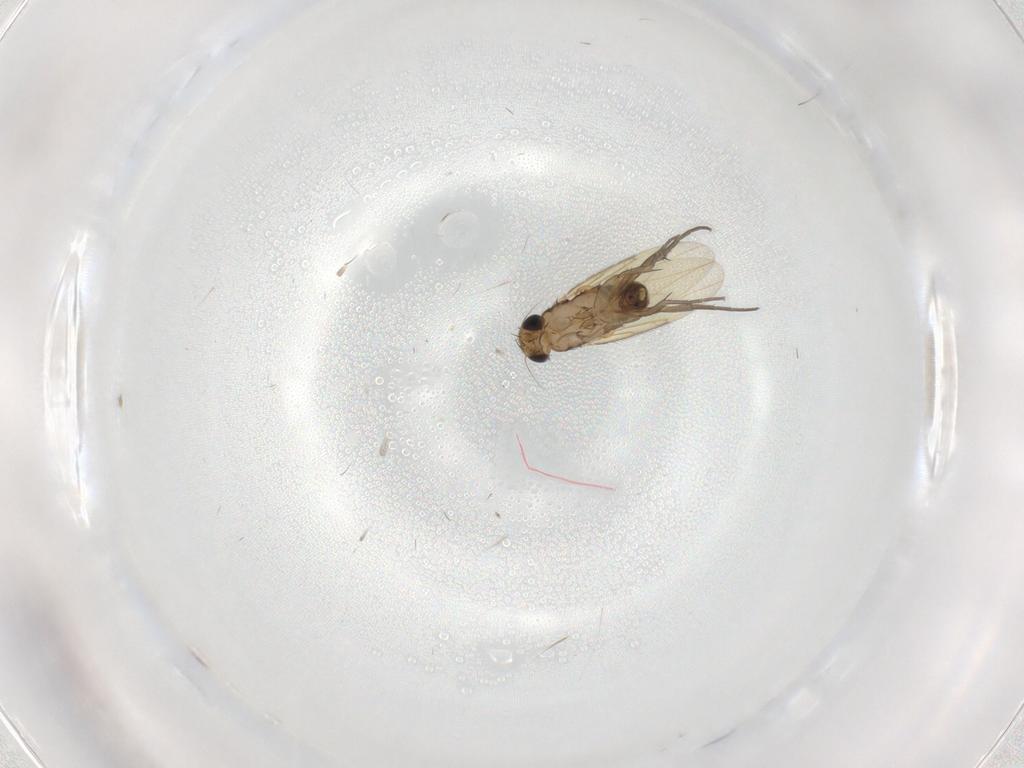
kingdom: Animalia
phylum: Arthropoda
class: Insecta
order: Diptera
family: Phoridae
